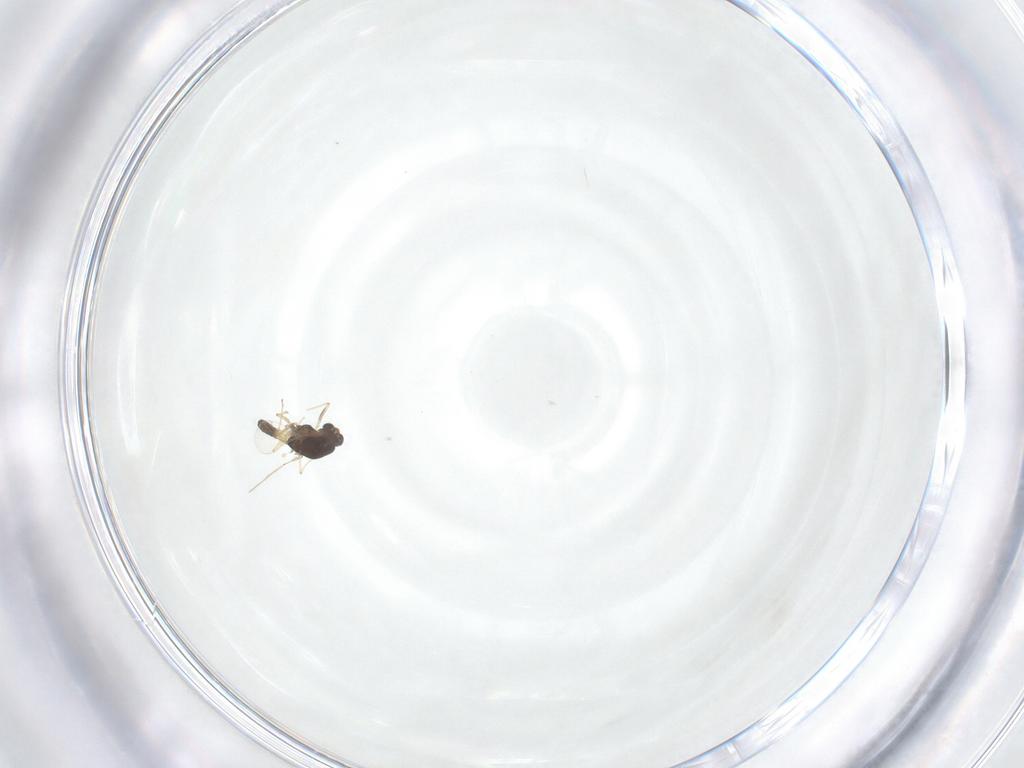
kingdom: Animalia
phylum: Arthropoda
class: Insecta
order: Diptera
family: Chironomidae
